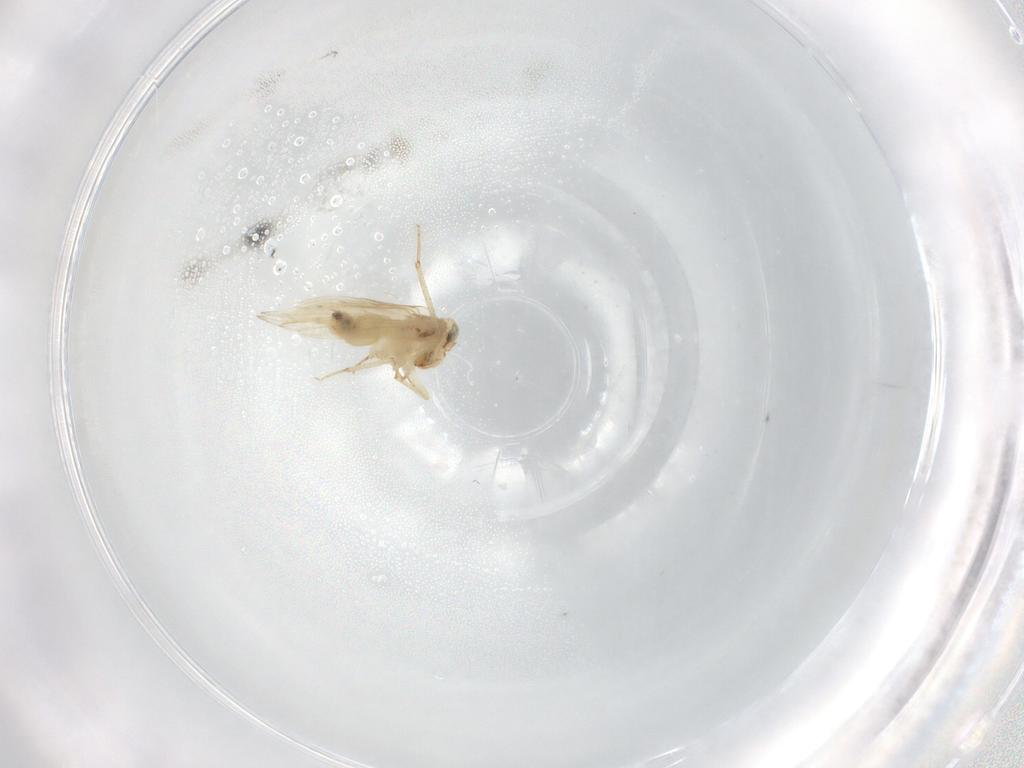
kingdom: Animalia
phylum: Arthropoda
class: Insecta
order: Psocodea
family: Lepidopsocidae
